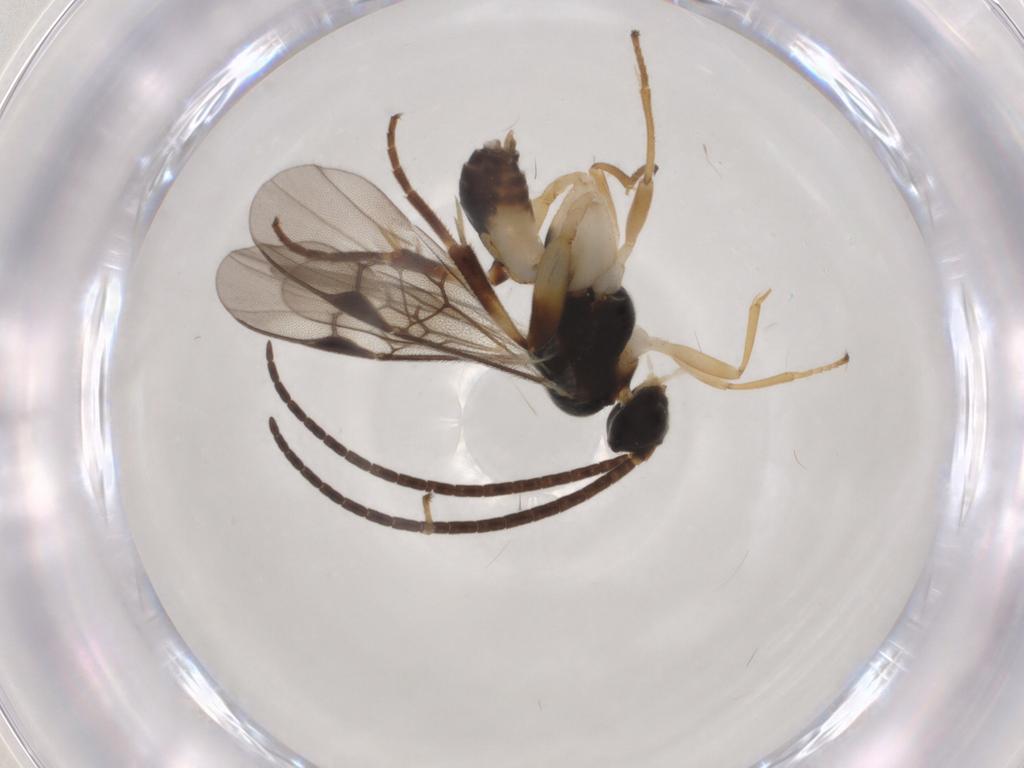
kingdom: Animalia
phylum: Arthropoda
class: Insecta
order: Hymenoptera
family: Braconidae
